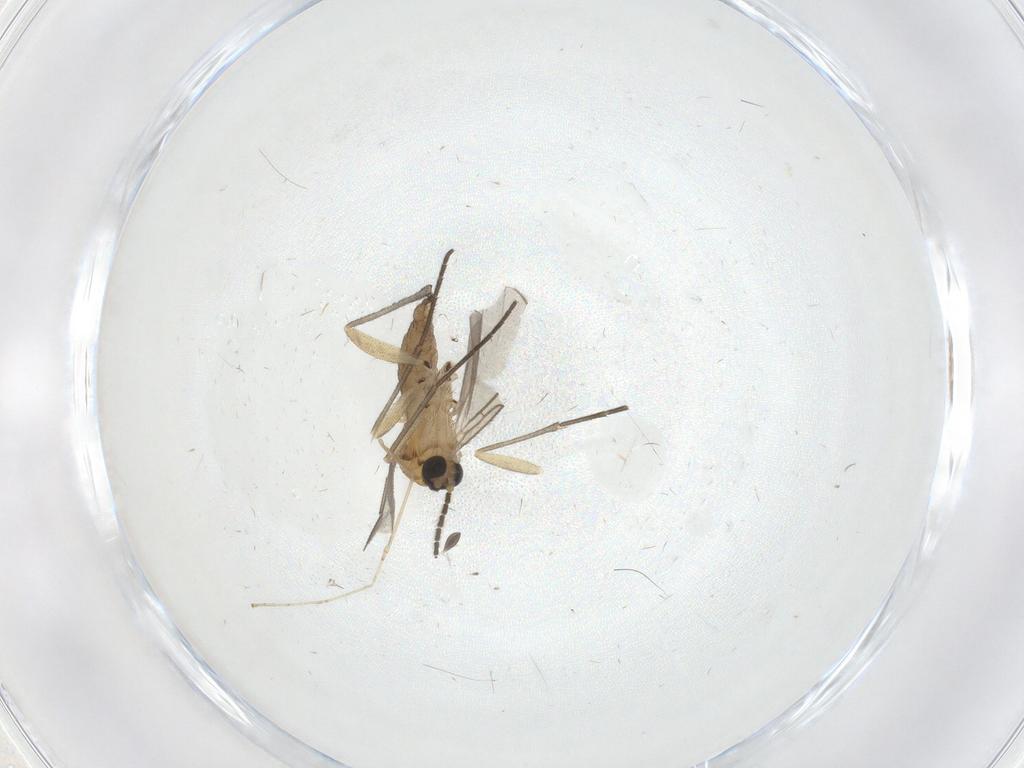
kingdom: Animalia
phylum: Arthropoda
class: Insecta
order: Diptera
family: Sciaridae
